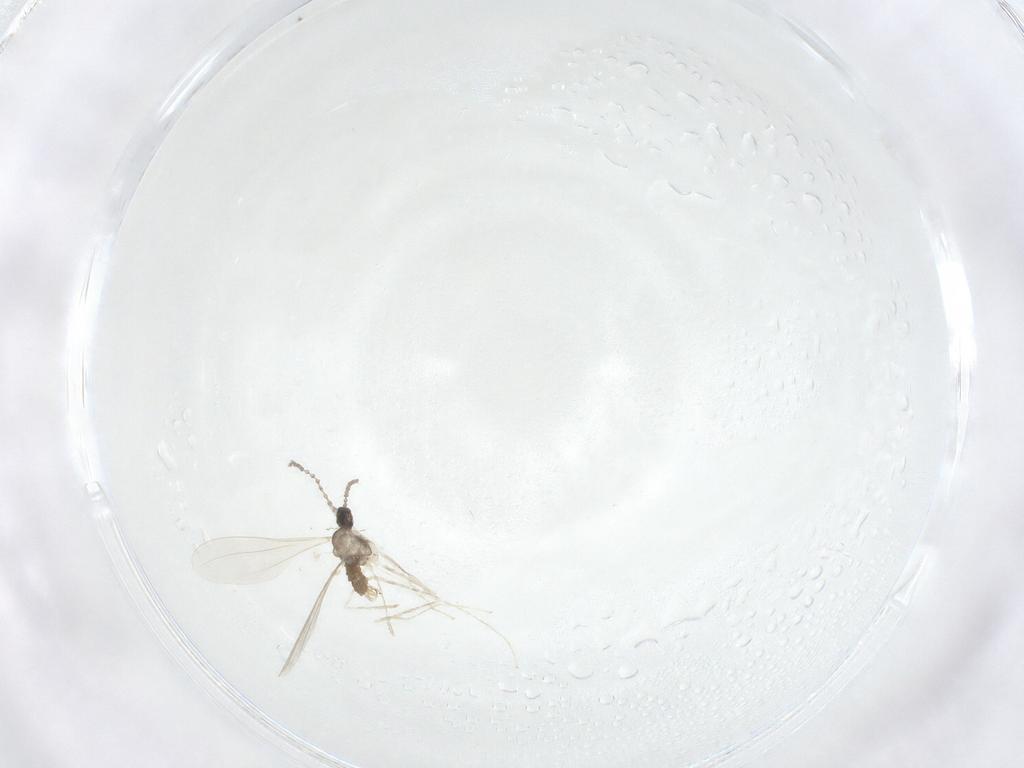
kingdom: Animalia
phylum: Arthropoda
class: Insecta
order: Diptera
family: Cecidomyiidae
